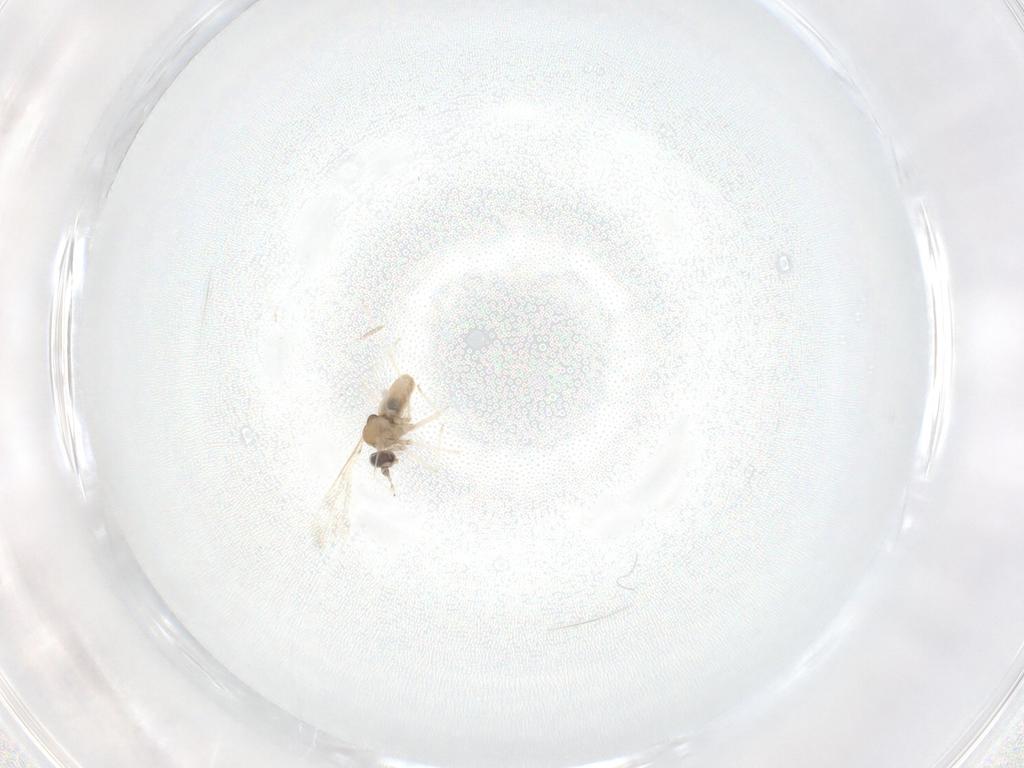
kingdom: Animalia
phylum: Arthropoda
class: Insecta
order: Diptera
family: Cecidomyiidae
